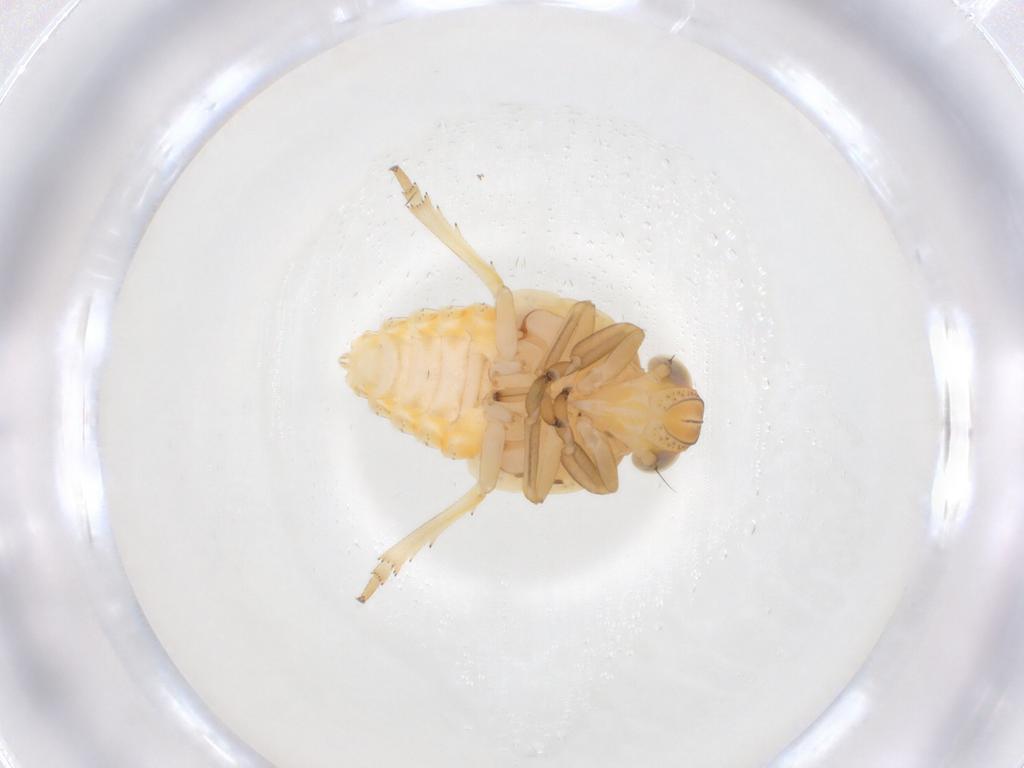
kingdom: Animalia
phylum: Arthropoda
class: Insecta
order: Hemiptera
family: Issidae
